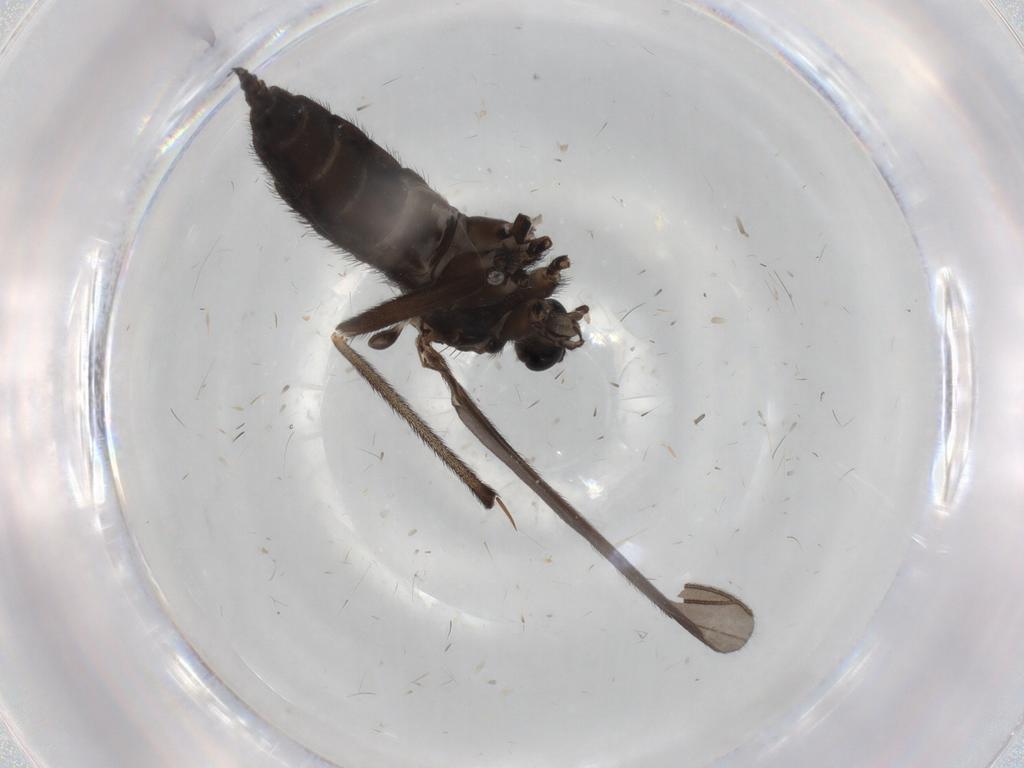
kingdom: Animalia
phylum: Arthropoda
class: Insecta
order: Diptera
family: Sciaridae
